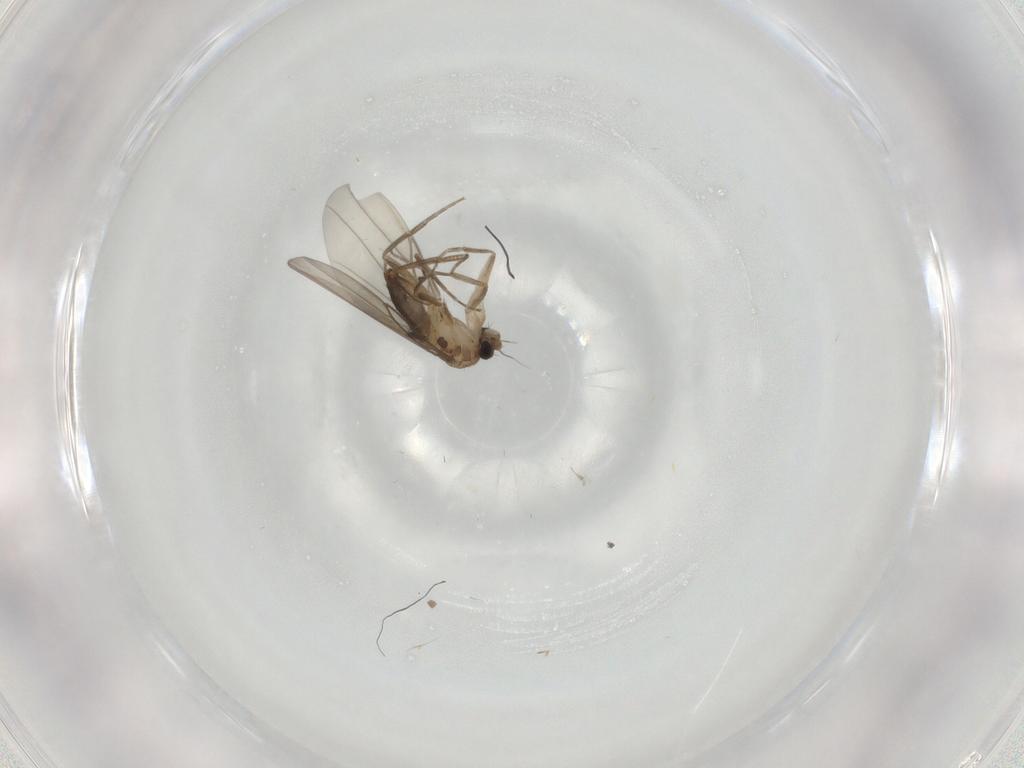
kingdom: Animalia
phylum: Arthropoda
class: Insecta
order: Diptera
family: Phoridae
